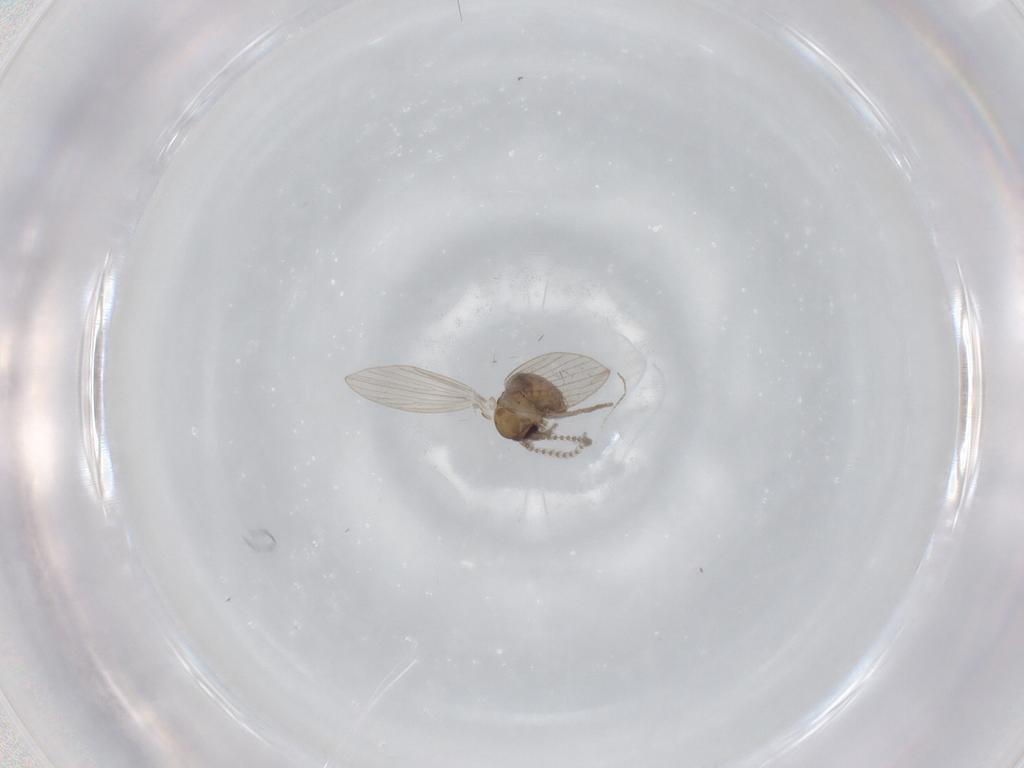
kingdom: Animalia
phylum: Arthropoda
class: Insecta
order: Diptera
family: Psychodidae
